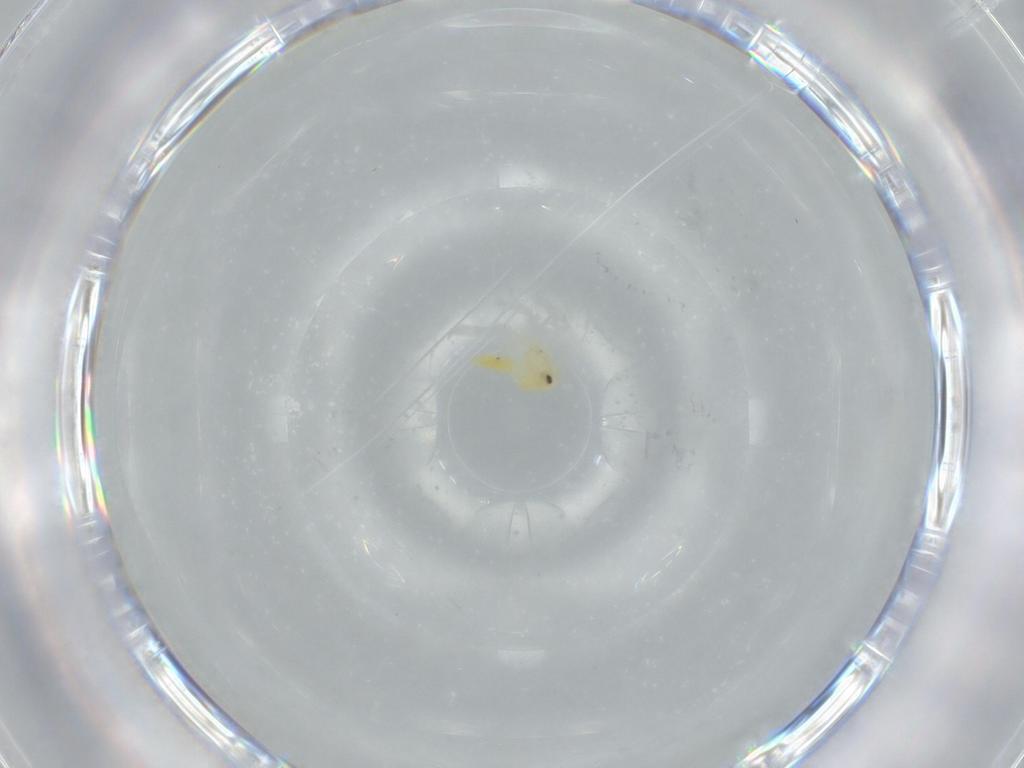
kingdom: Animalia
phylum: Arthropoda
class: Insecta
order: Hemiptera
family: Aleyrodidae
